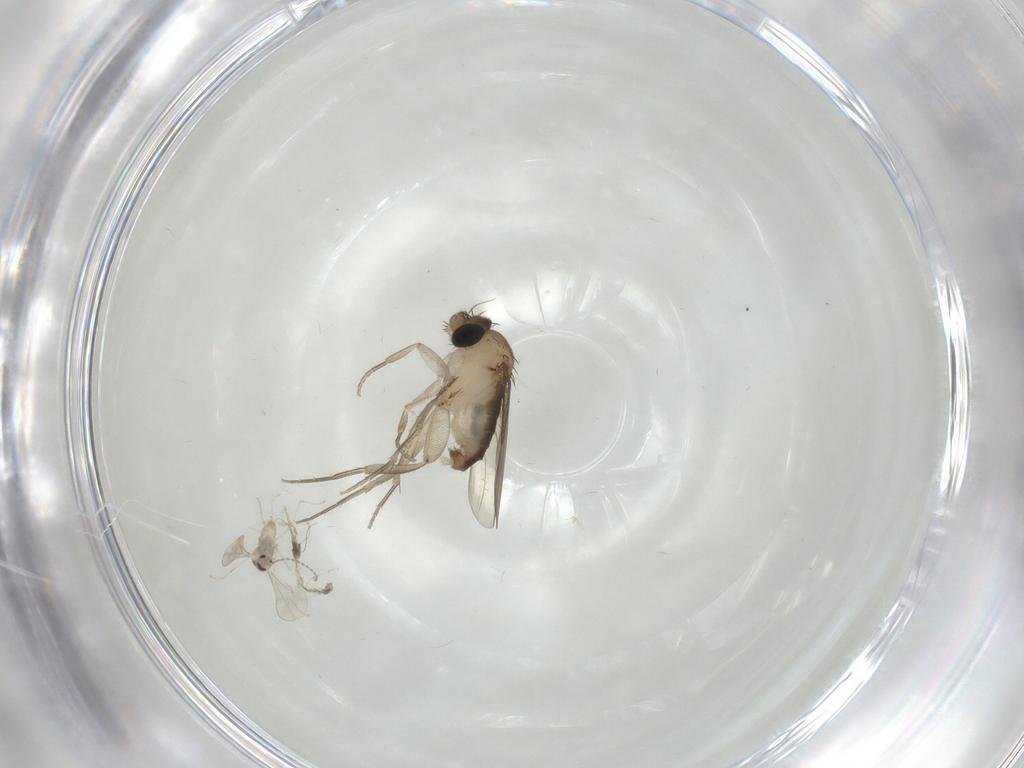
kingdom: Animalia
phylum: Arthropoda
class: Insecta
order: Diptera
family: Phoridae
